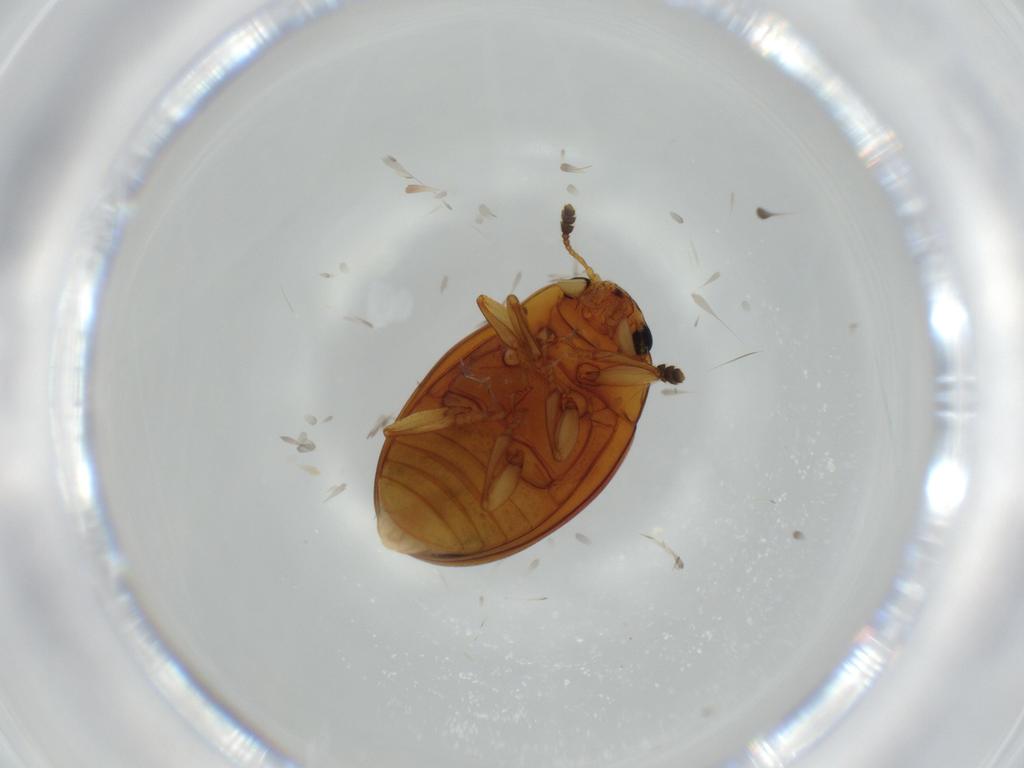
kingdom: Animalia
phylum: Arthropoda
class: Insecta
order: Coleoptera
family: Erotylidae
